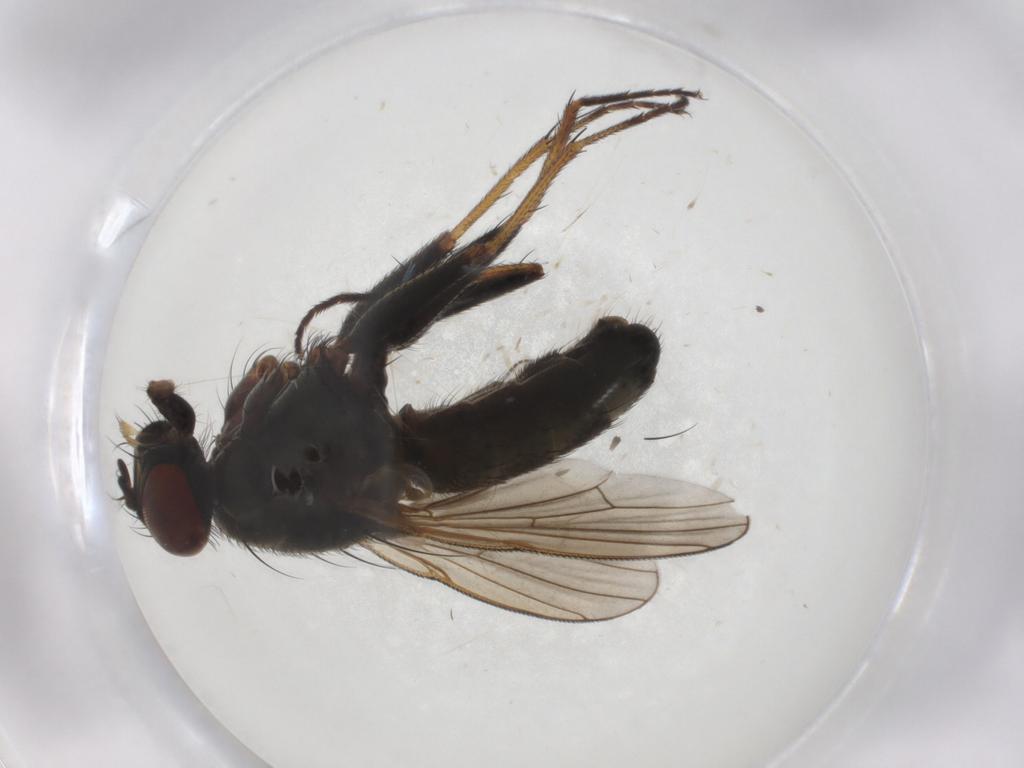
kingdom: Animalia
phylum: Arthropoda
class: Insecta
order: Diptera
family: Muscidae
